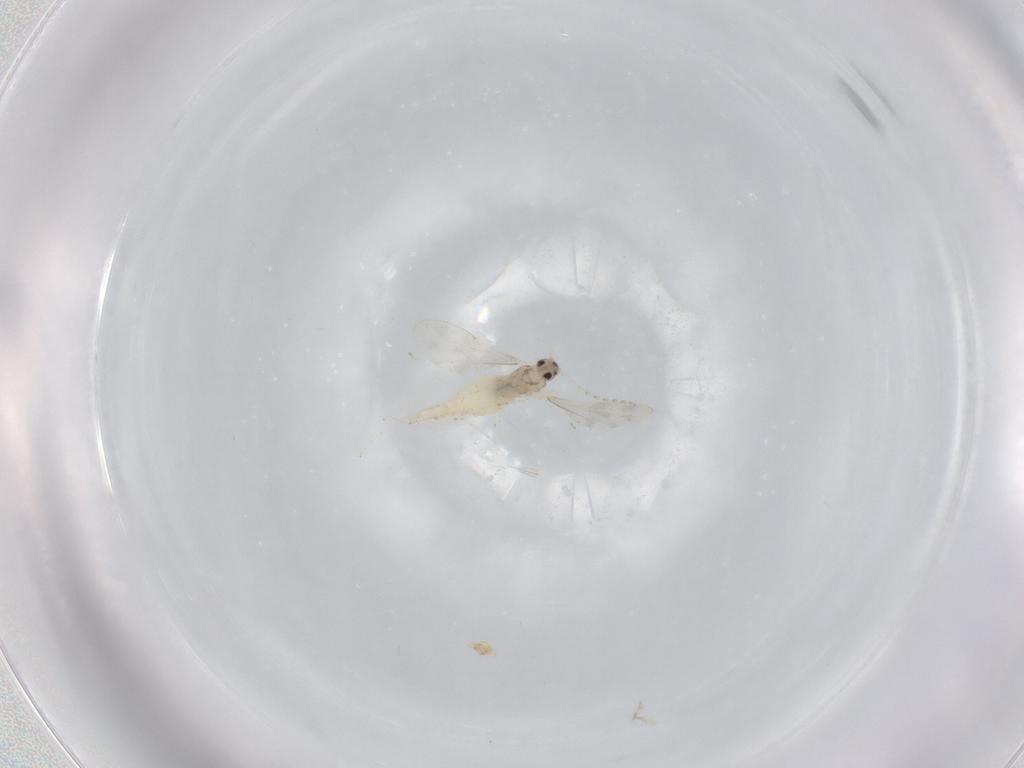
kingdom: Animalia
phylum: Arthropoda
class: Insecta
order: Diptera
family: Cecidomyiidae
